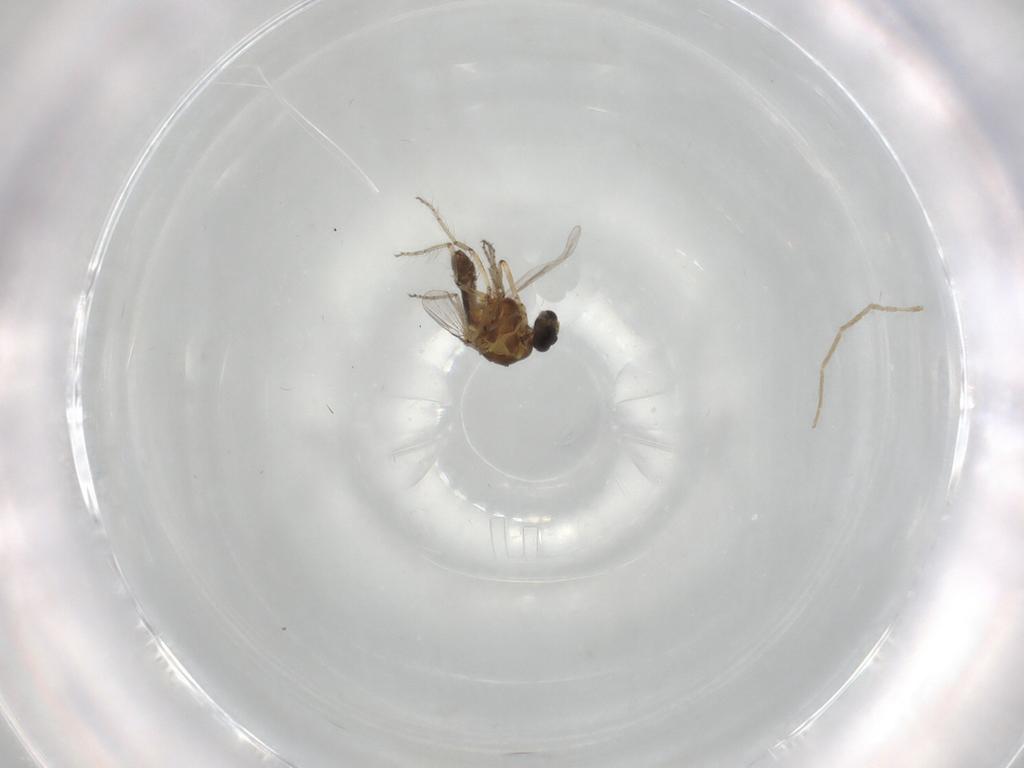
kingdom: Animalia
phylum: Arthropoda
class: Insecta
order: Diptera
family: Ceratopogonidae
